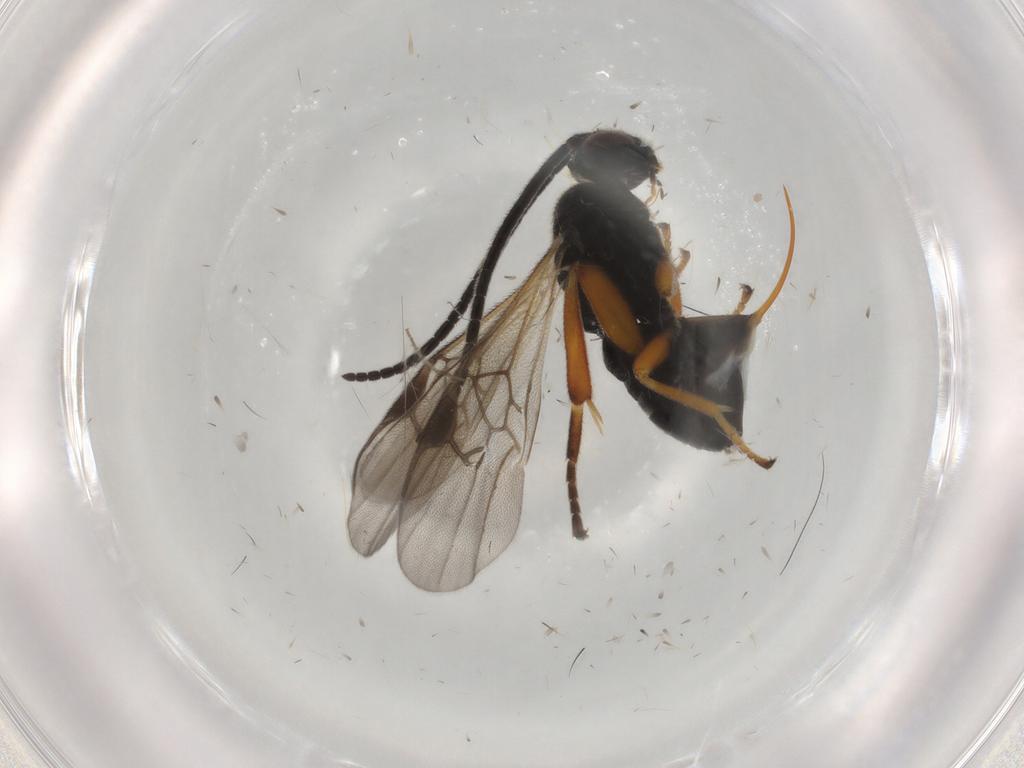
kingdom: Animalia
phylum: Arthropoda
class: Insecta
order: Hymenoptera
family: Braconidae
